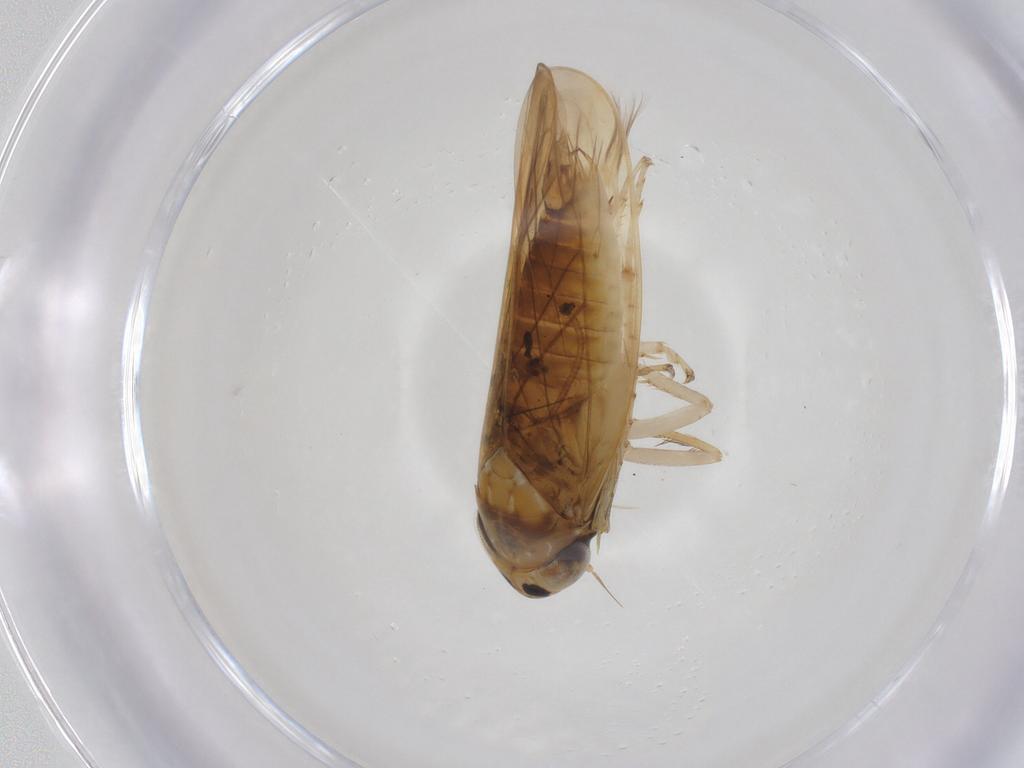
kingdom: Animalia
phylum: Arthropoda
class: Insecta
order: Hemiptera
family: Cicadellidae
